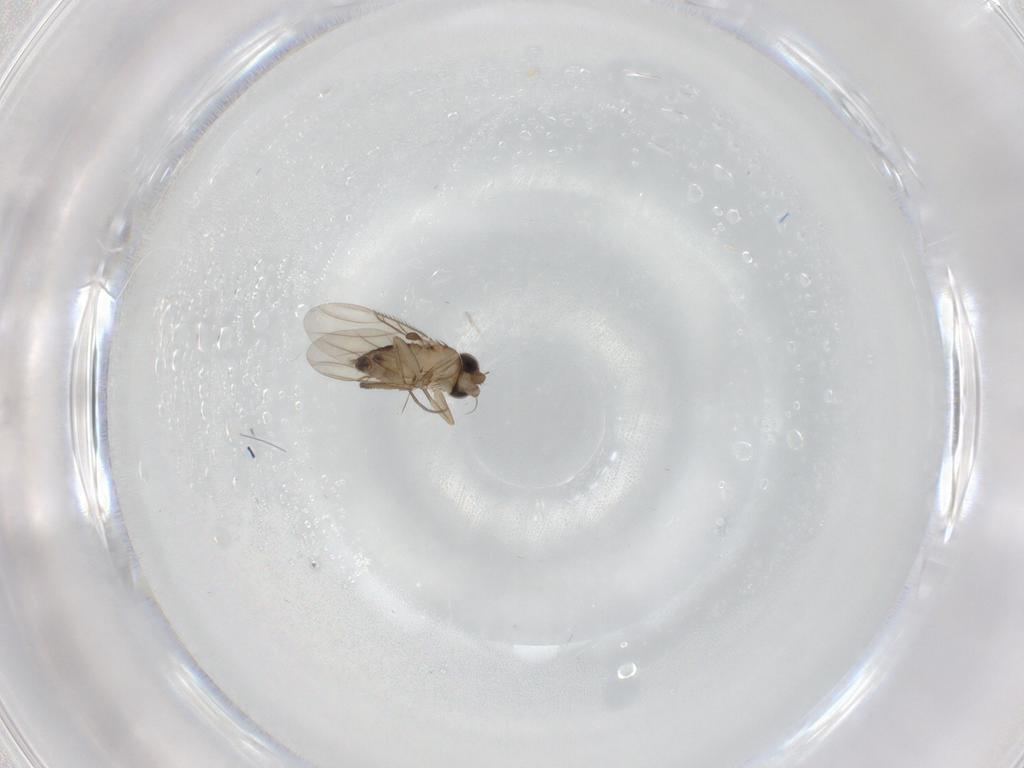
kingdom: Animalia
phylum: Arthropoda
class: Insecta
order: Diptera
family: Phoridae
